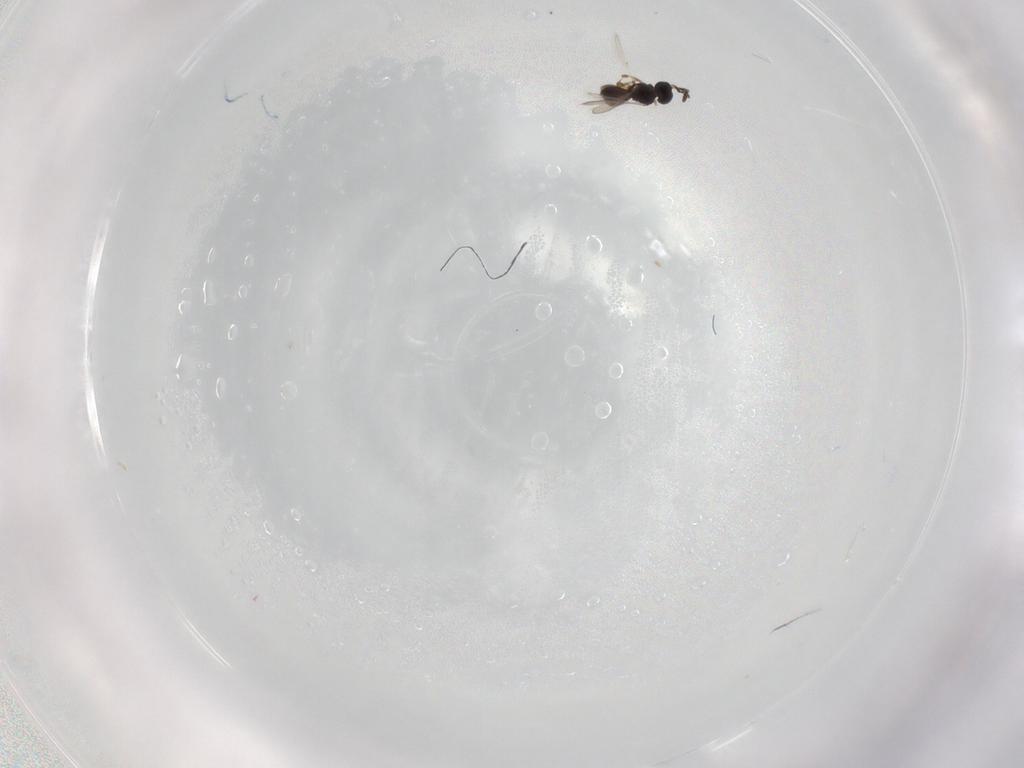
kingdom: Animalia
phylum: Arthropoda
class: Insecta
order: Hymenoptera
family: Scelionidae
